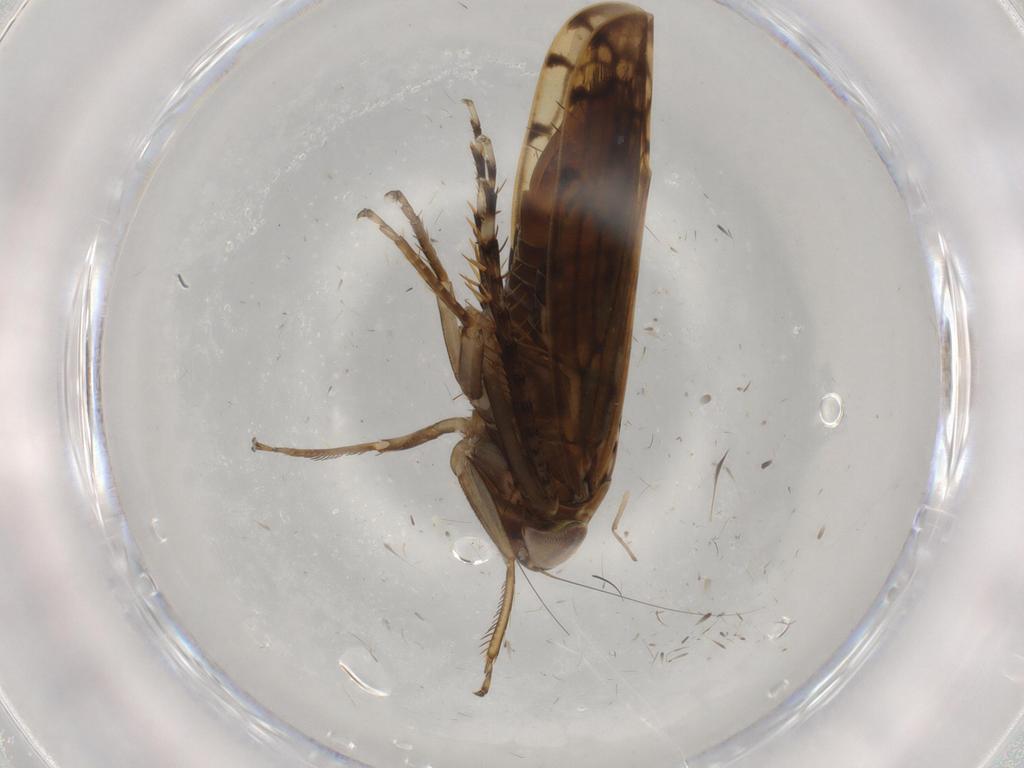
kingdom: Animalia
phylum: Arthropoda
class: Insecta
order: Hemiptera
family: Cicadellidae
